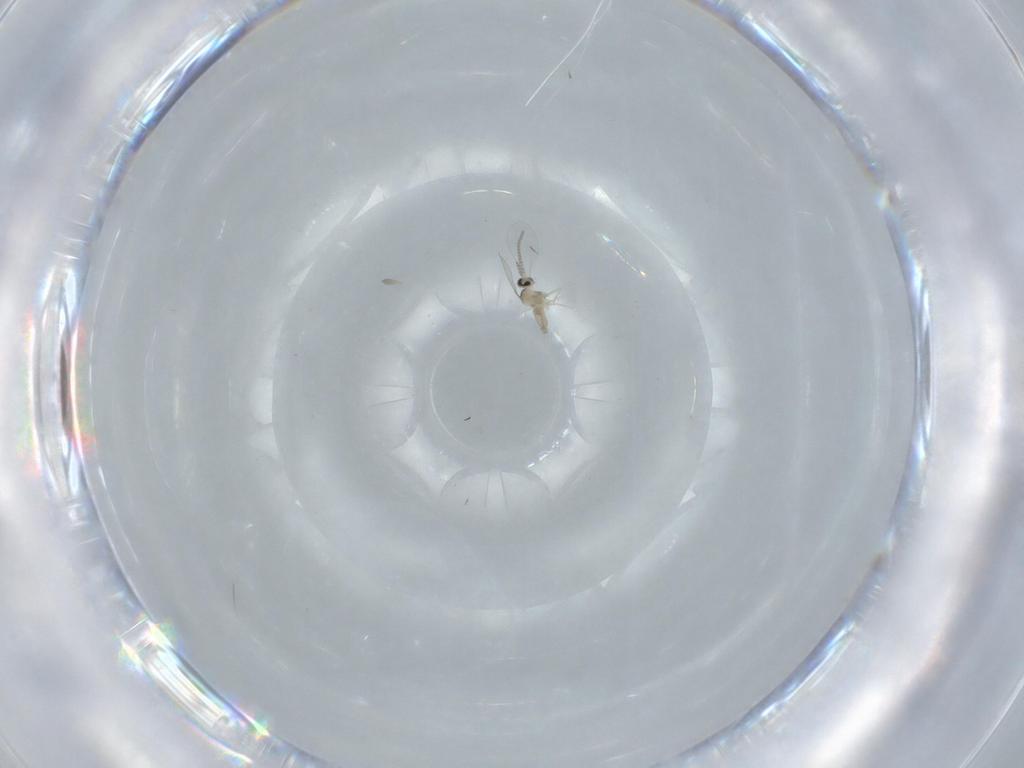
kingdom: Animalia
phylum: Arthropoda
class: Insecta
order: Diptera
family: Cecidomyiidae
